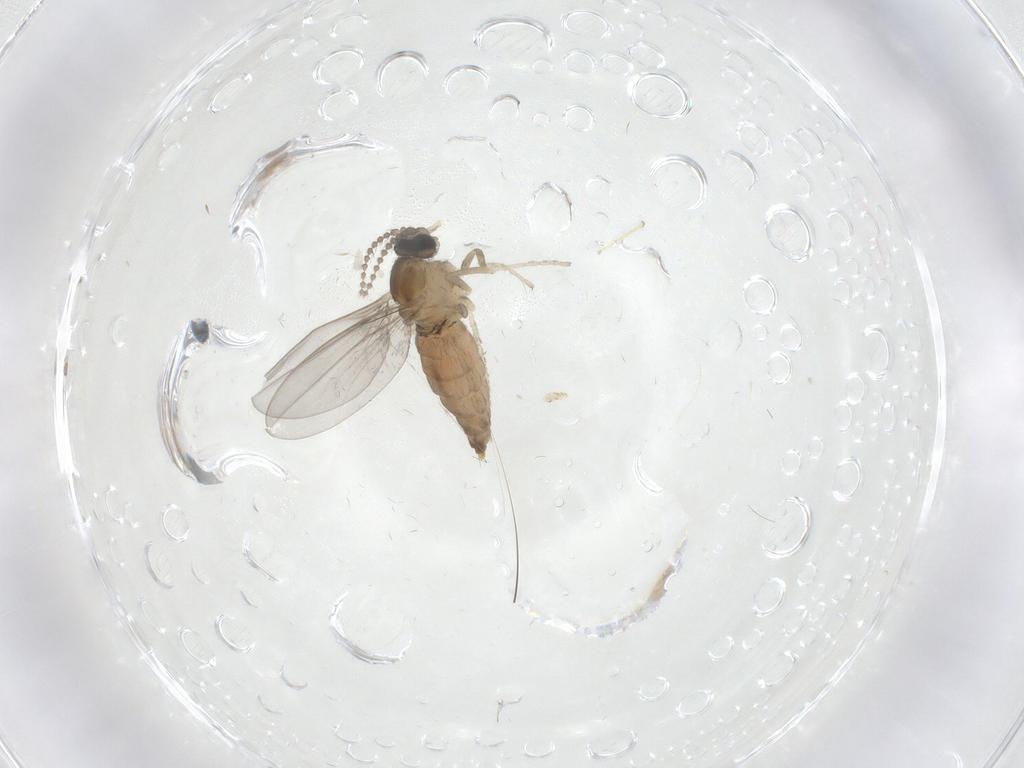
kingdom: Animalia
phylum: Arthropoda
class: Insecta
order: Diptera
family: Cecidomyiidae
